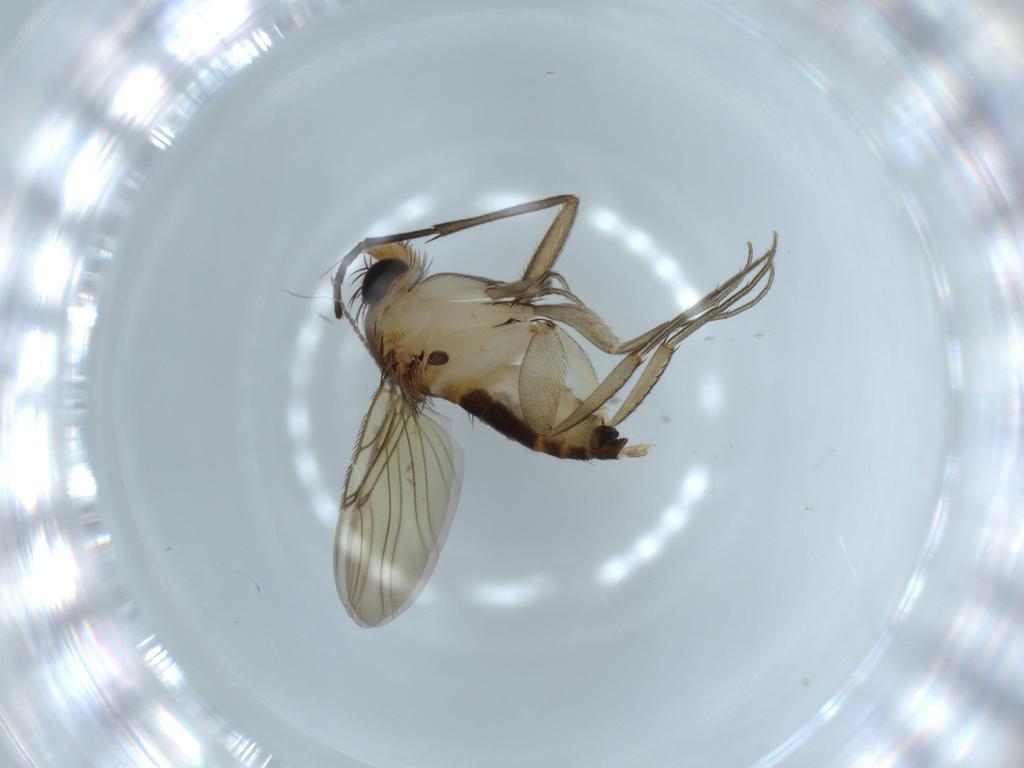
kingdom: Animalia
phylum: Arthropoda
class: Insecta
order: Diptera
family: Phoridae
